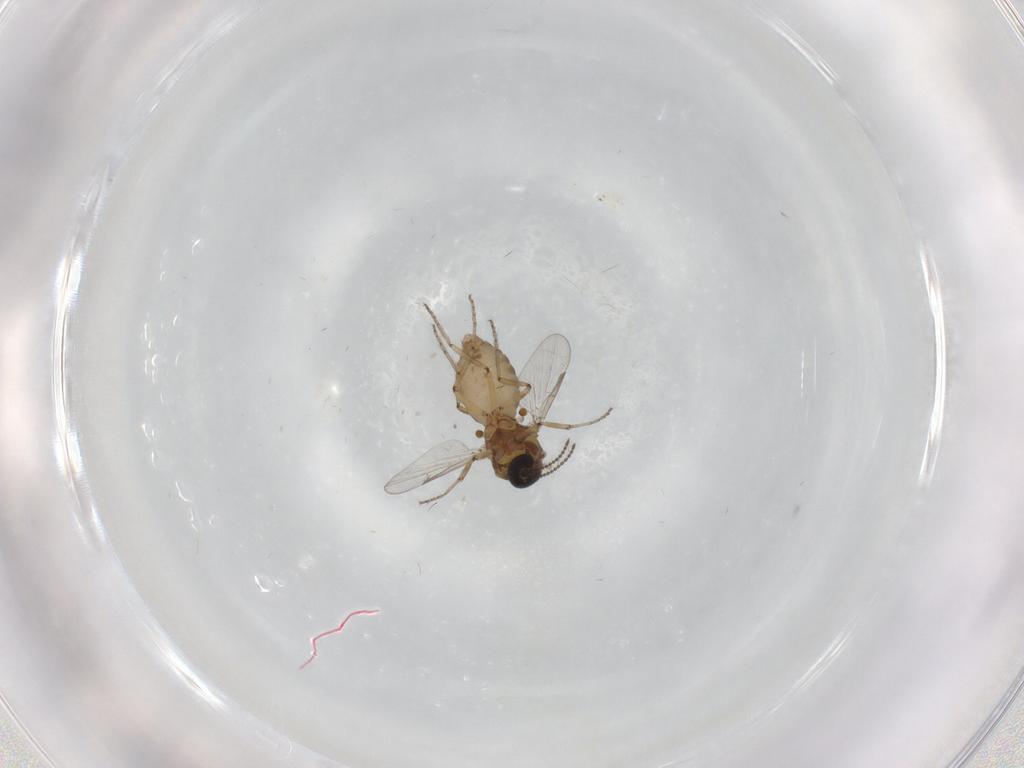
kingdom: Animalia
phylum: Arthropoda
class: Insecta
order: Diptera
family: Ceratopogonidae
